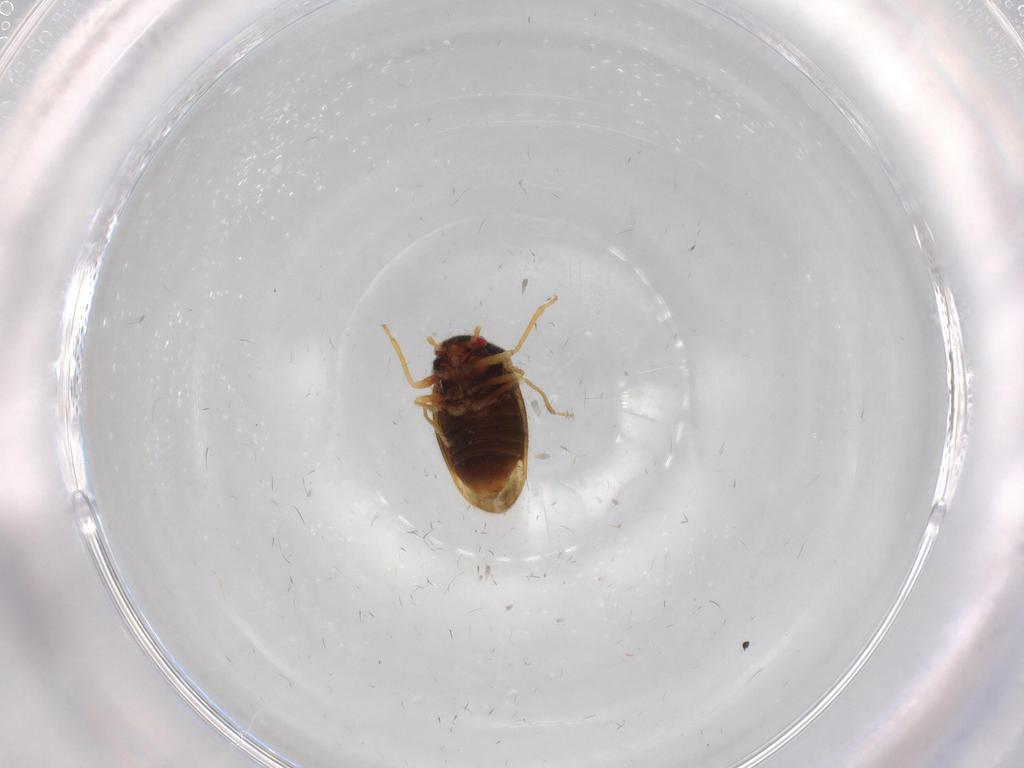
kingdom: Animalia
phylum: Arthropoda
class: Insecta
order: Hemiptera
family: Schizopteridae
